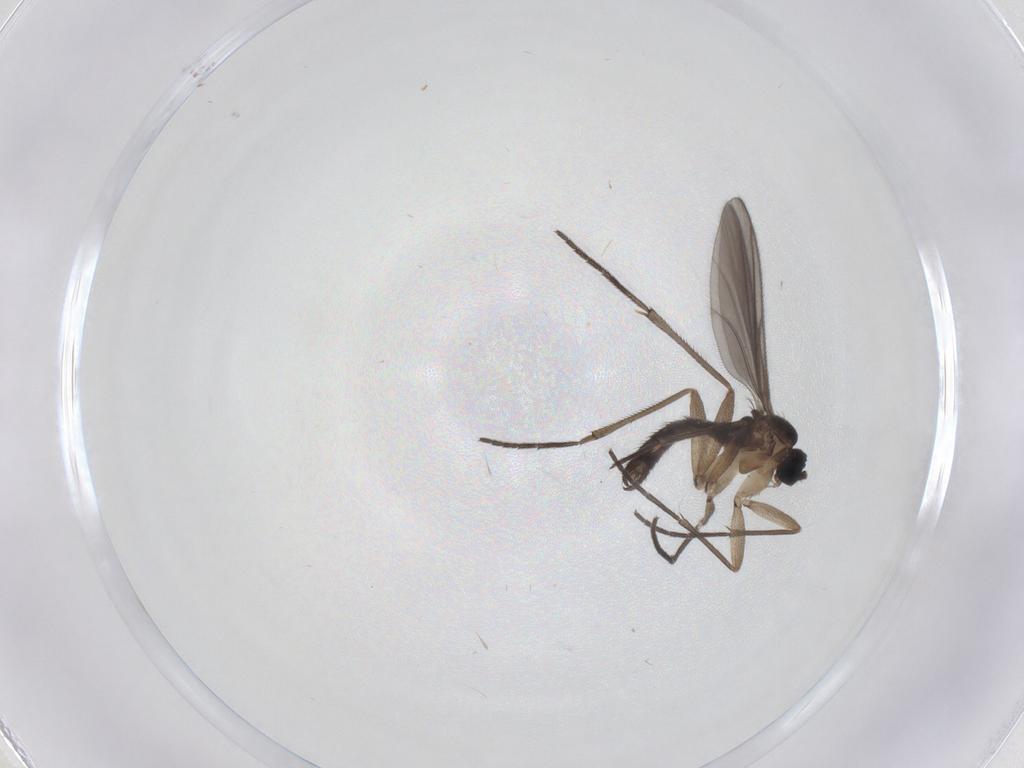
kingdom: Animalia
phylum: Arthropoda
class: Insecta
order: Diptera
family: Sciaridae
